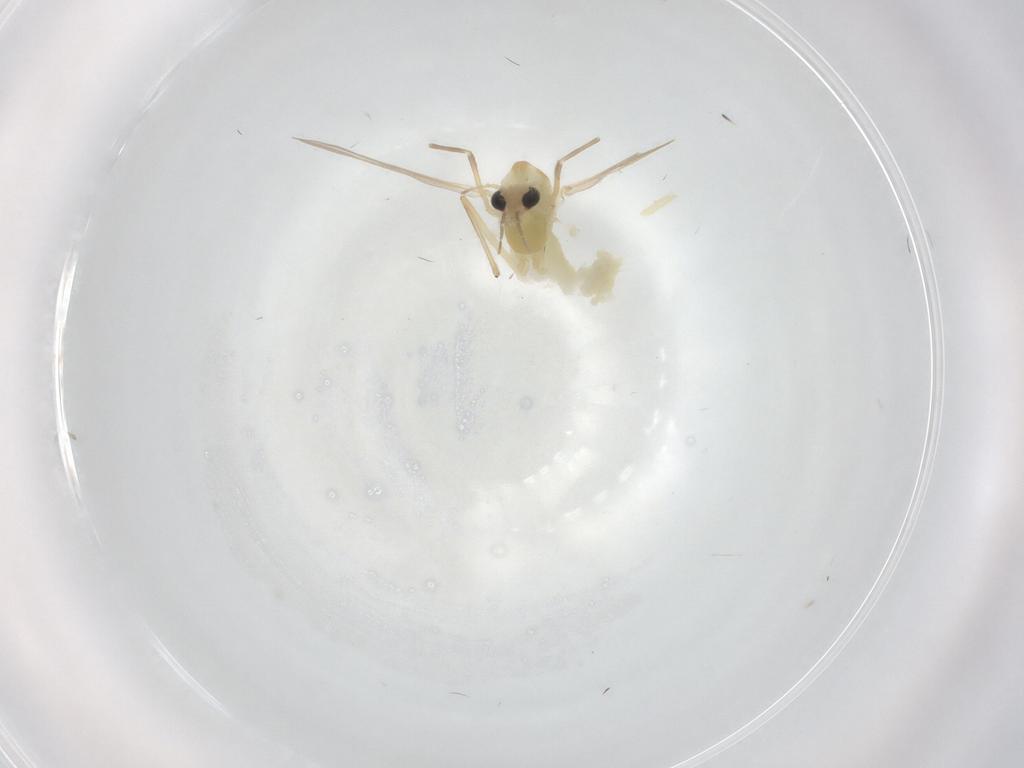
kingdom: Animalia
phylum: Arthropoda
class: Insecta
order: Diptera
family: Chironomidae
